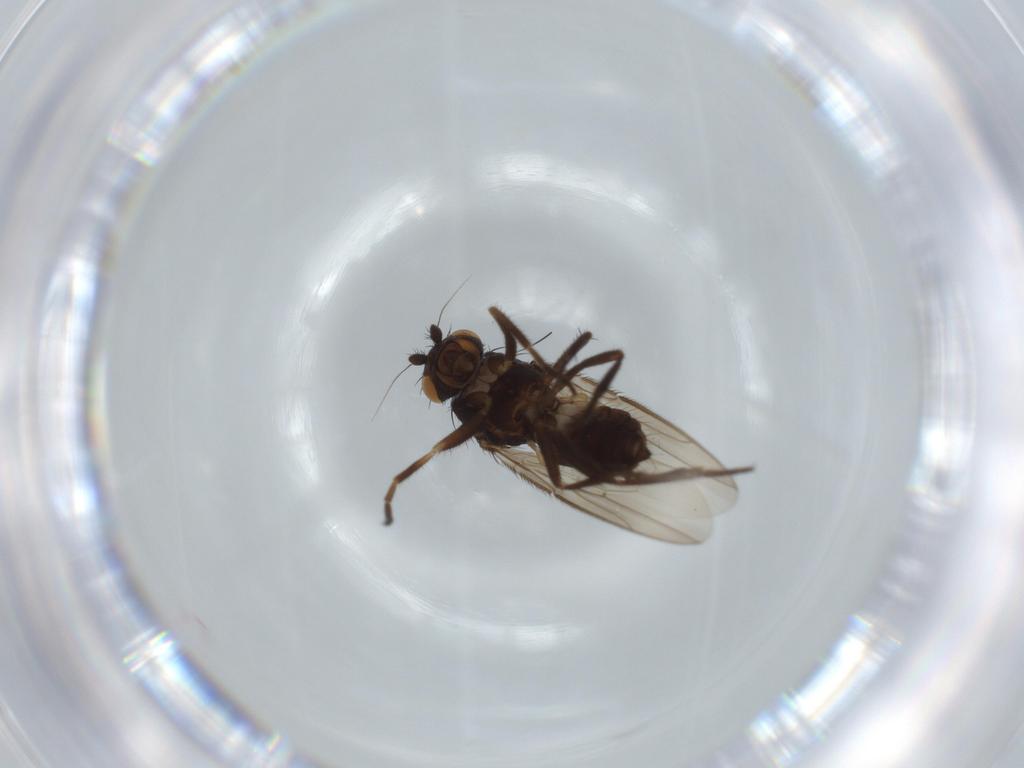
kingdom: Animalia
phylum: Arthropoda
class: Insecta
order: Diptera
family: Sphaeroceridae
